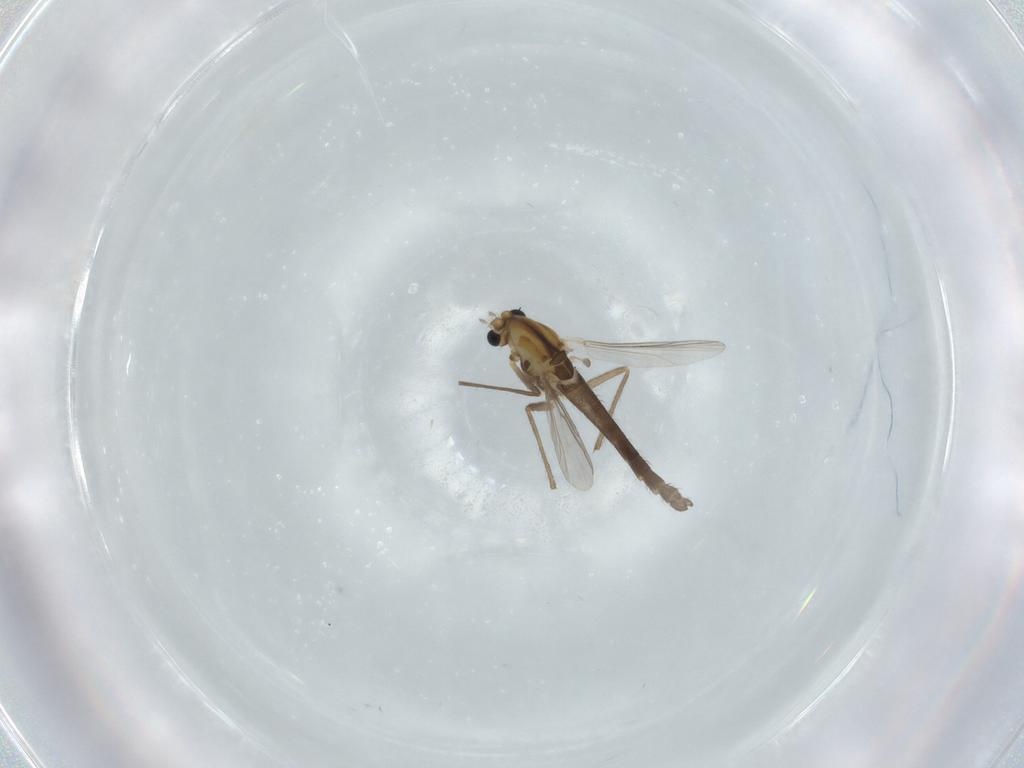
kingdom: Animalia
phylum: Arthropoda
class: Insecta
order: Diptera
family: Chironomidae
